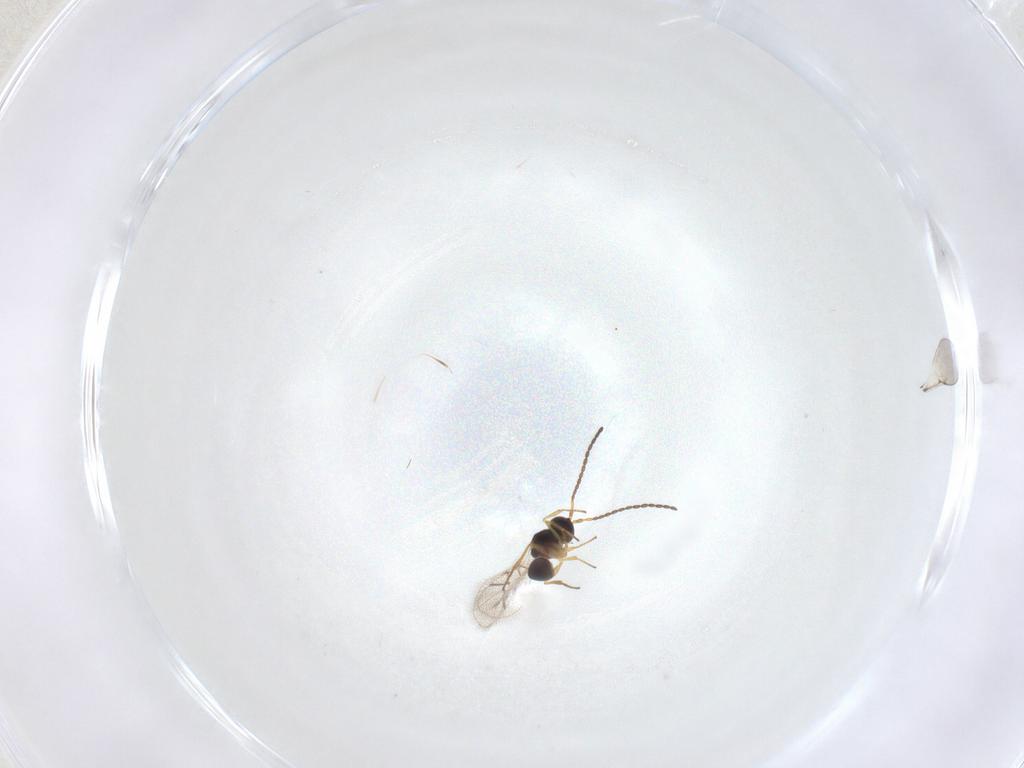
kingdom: Animalia
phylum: Arthropoda
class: Insecta
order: Hymenoptera
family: Figitidae
